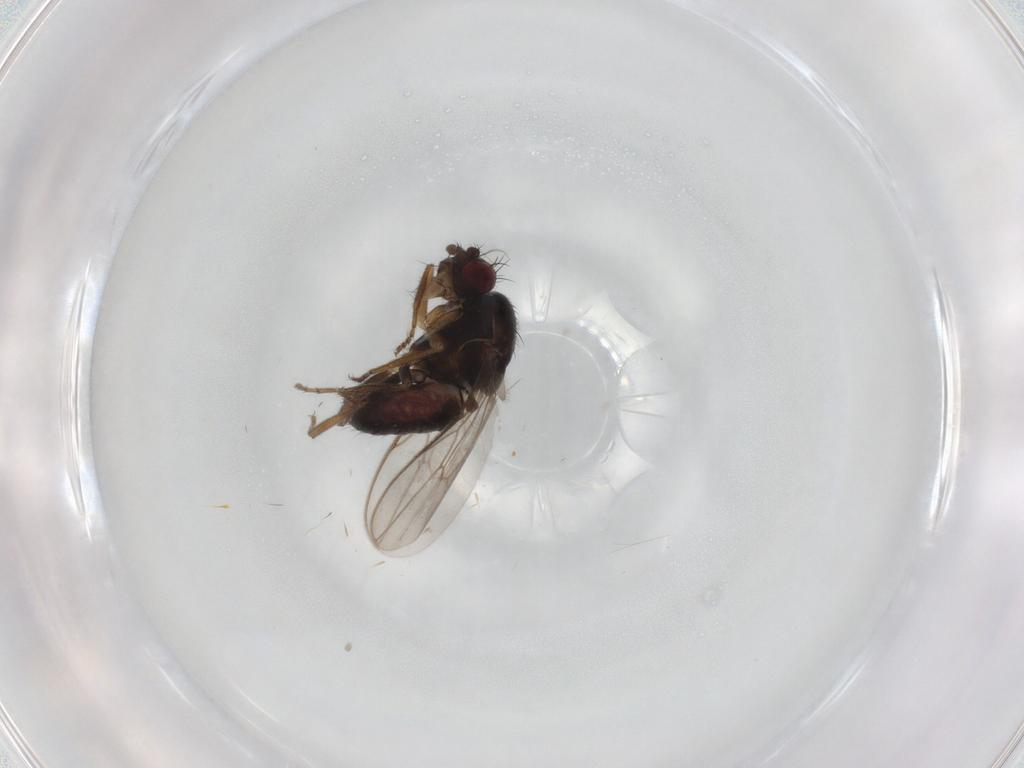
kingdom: Animalia
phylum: Arthropoda
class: Insecta
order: Diptera
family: Sphaeroceridae
